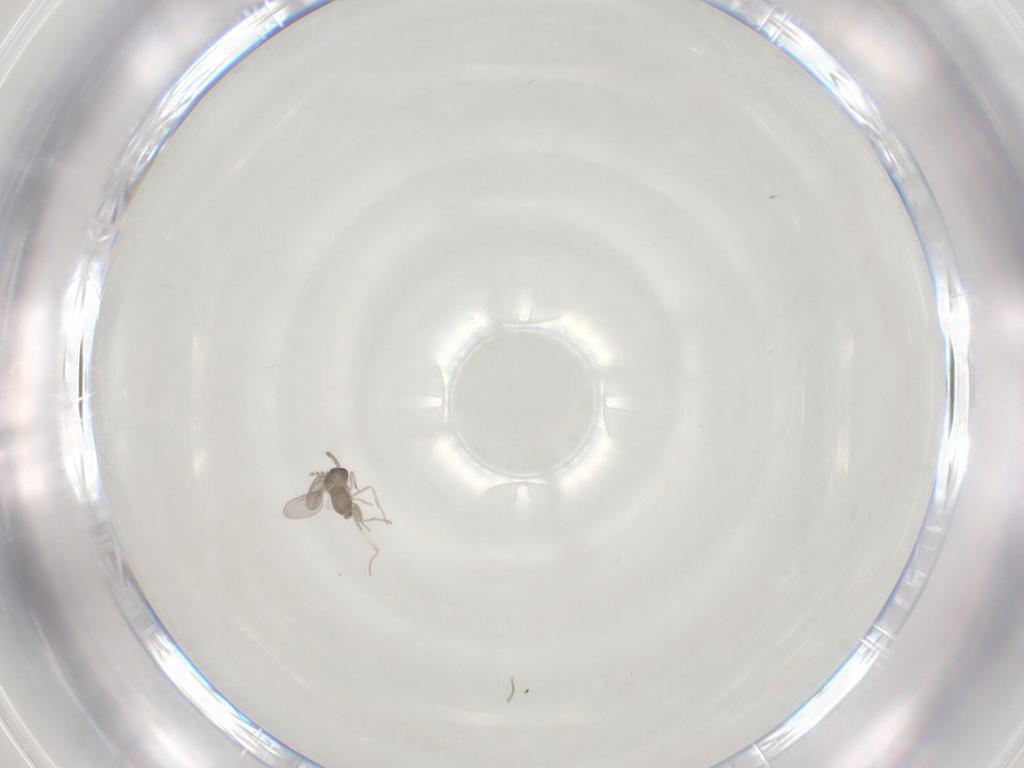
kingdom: Animalia
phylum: Arthropoda
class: Insecta
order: Diptera
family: Cecidomyiidae
